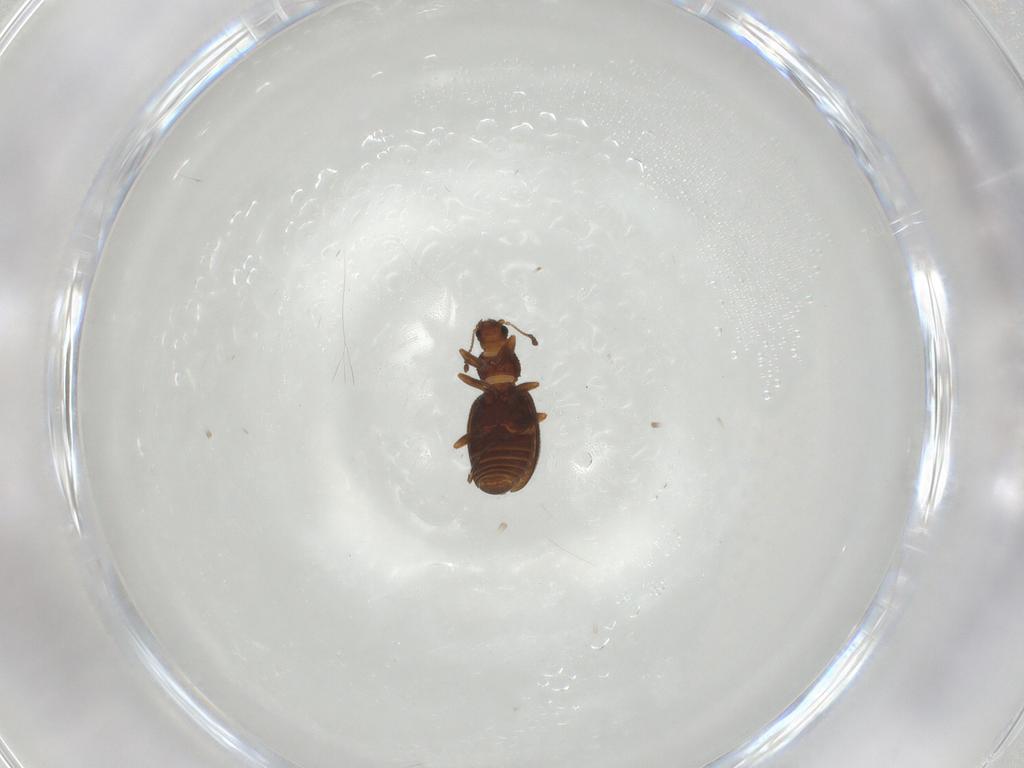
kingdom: Animalia
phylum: Arthropoda
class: Insecta
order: Coleoptera
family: Latridiidae
